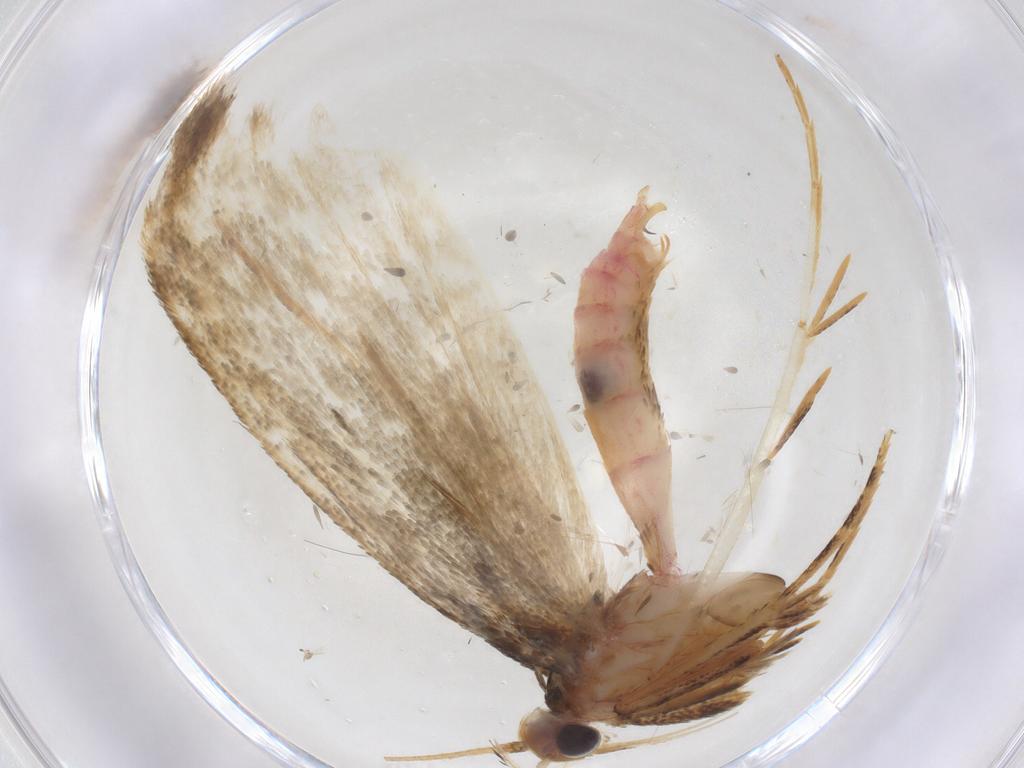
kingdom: Animalia
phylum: Arthropoda
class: Insecta
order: Lepidoptera
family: Crambidae
